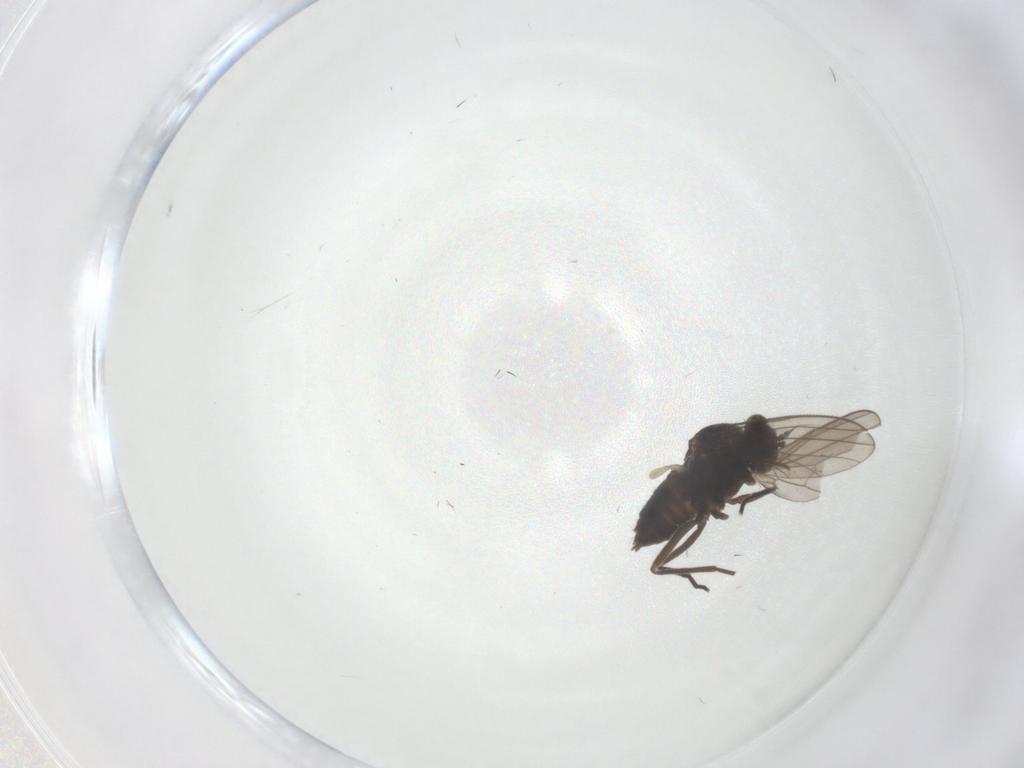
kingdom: Animalia
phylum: Arthropoda
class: Insecta
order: Diptera
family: Dolichopodidae
